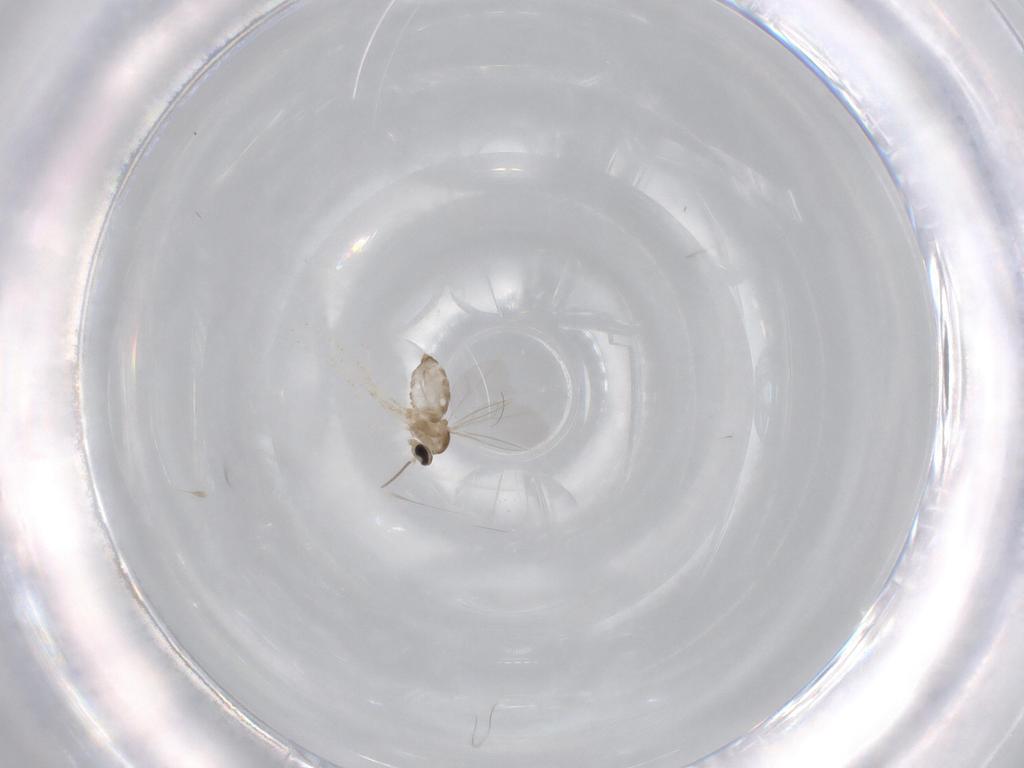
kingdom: Animalia
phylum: Arthropoda
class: Insecta
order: Diptera
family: Cecidomyiidae
